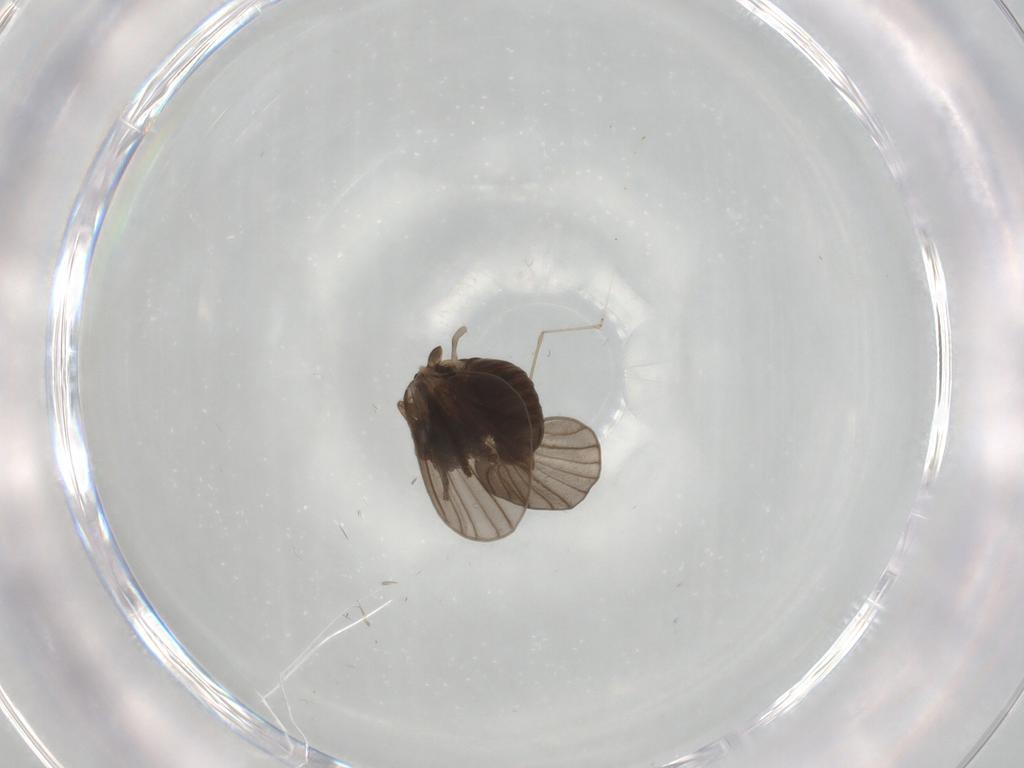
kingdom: Animalia
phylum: Arthropoda
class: Insecta
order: Diptera
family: Psychodidae
